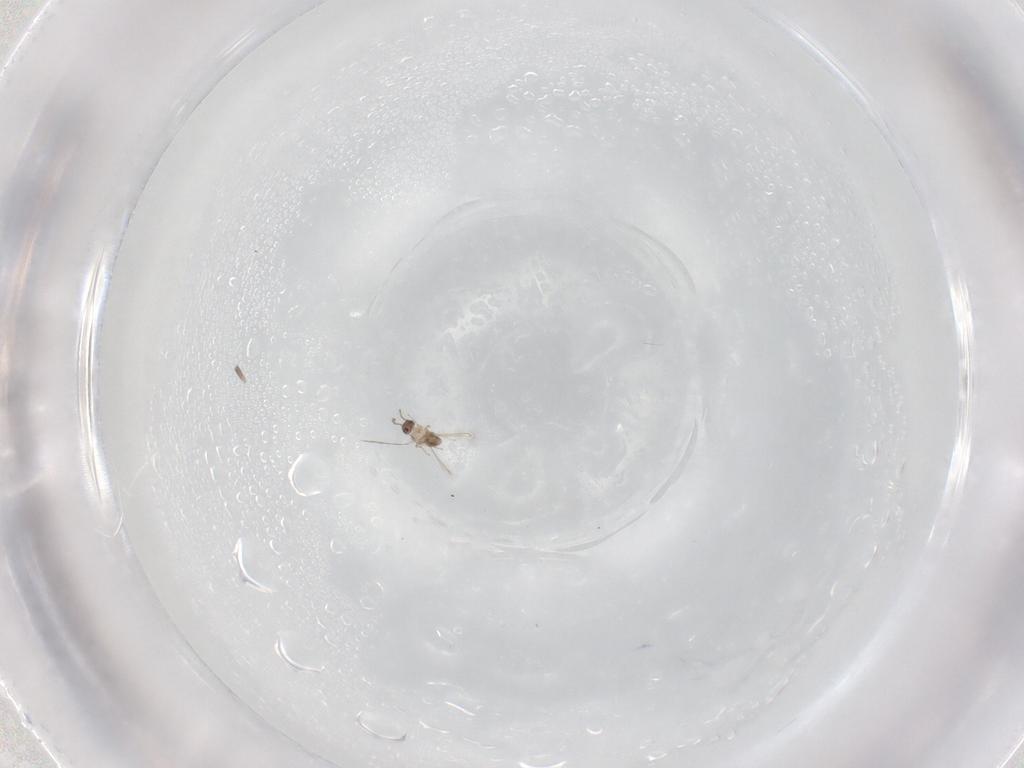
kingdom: Animalia
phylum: Arthropoda
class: Insecta
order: Hymenoptera
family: Mymaridae
